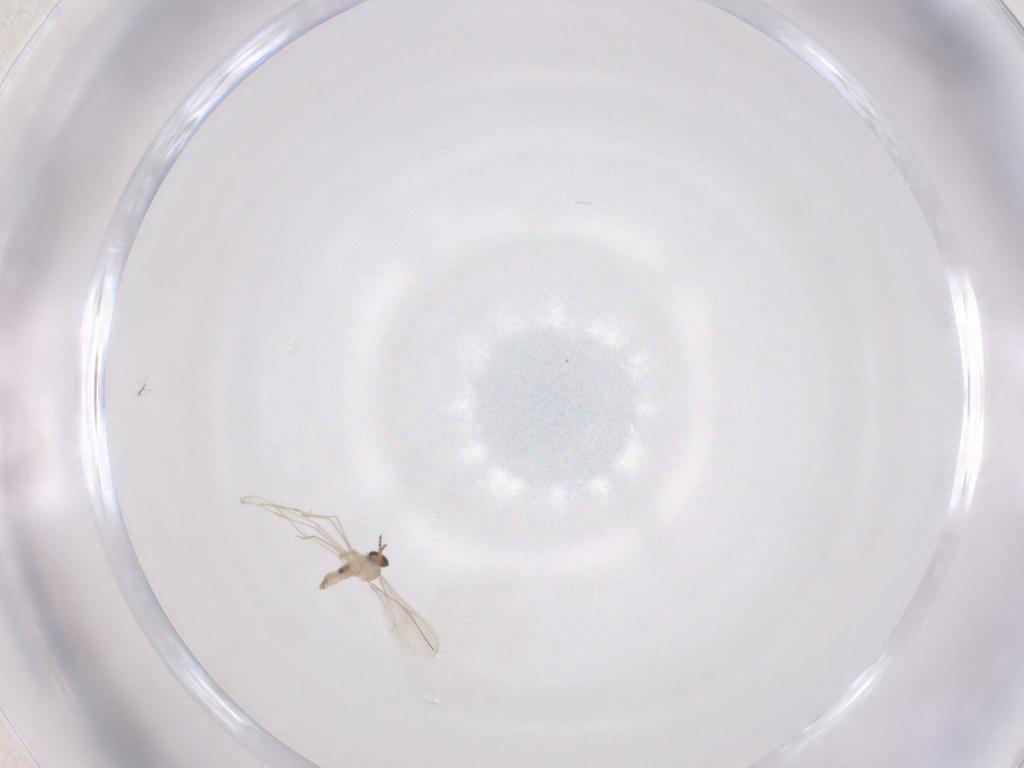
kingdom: Animalia
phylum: Arthropoda
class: Insecta
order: Diptera
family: Cecidomyiidae
